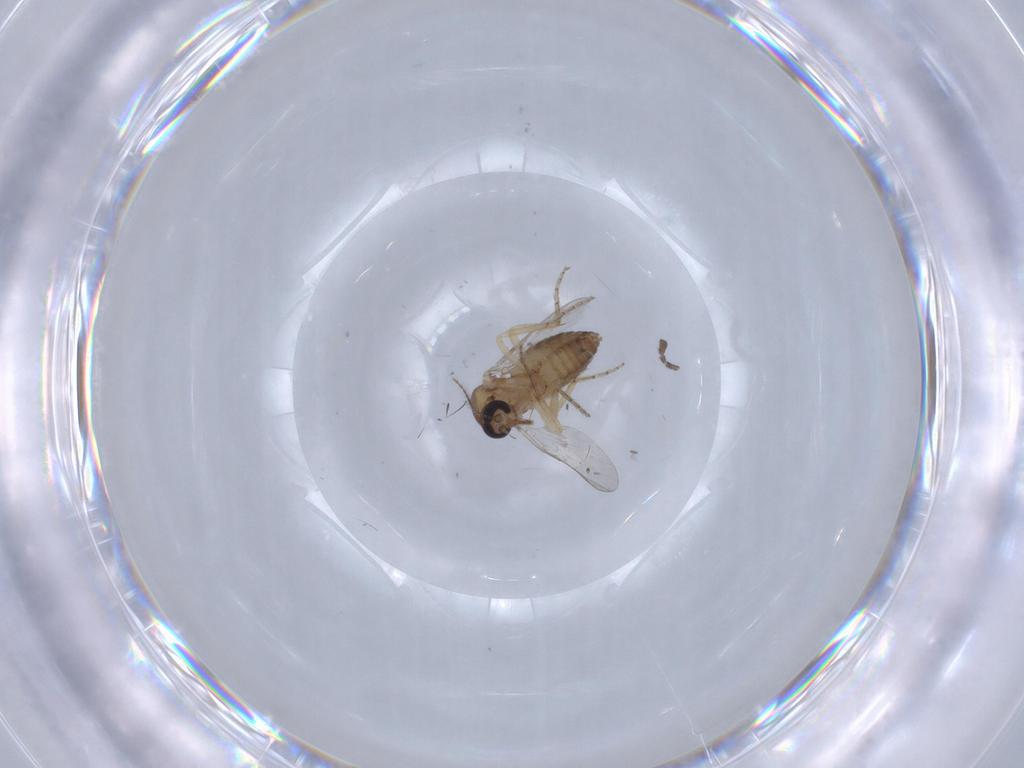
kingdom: Animalia
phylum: Arthropoda
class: Insecta
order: Diptera
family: Ceratopogonidae
